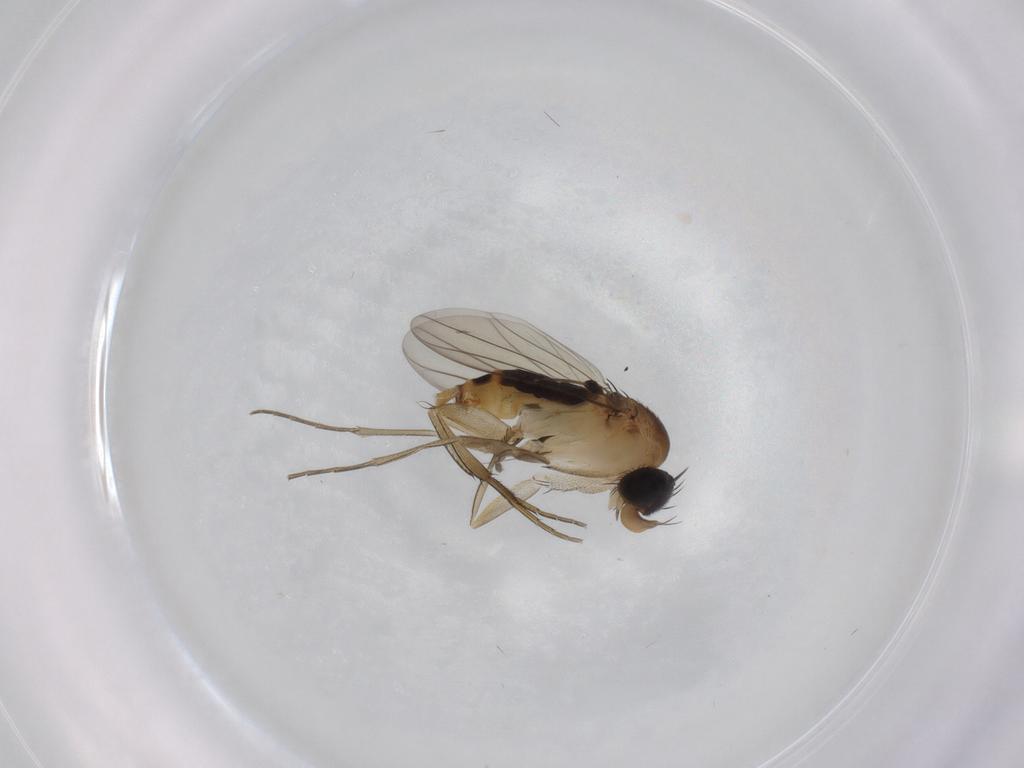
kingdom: Animalia
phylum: Arthropoda
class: Insecta
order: Diptera
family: Phoridae
